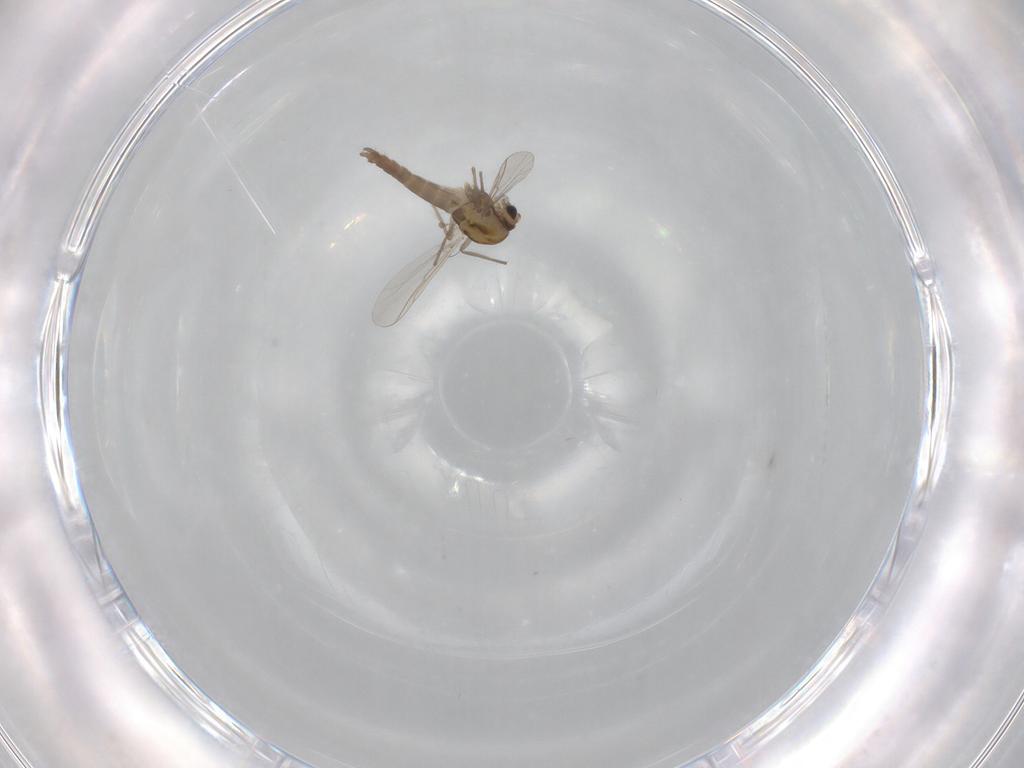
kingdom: Animalia
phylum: Arthropoda
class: Insecta
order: Diptera
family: Chironomidae
